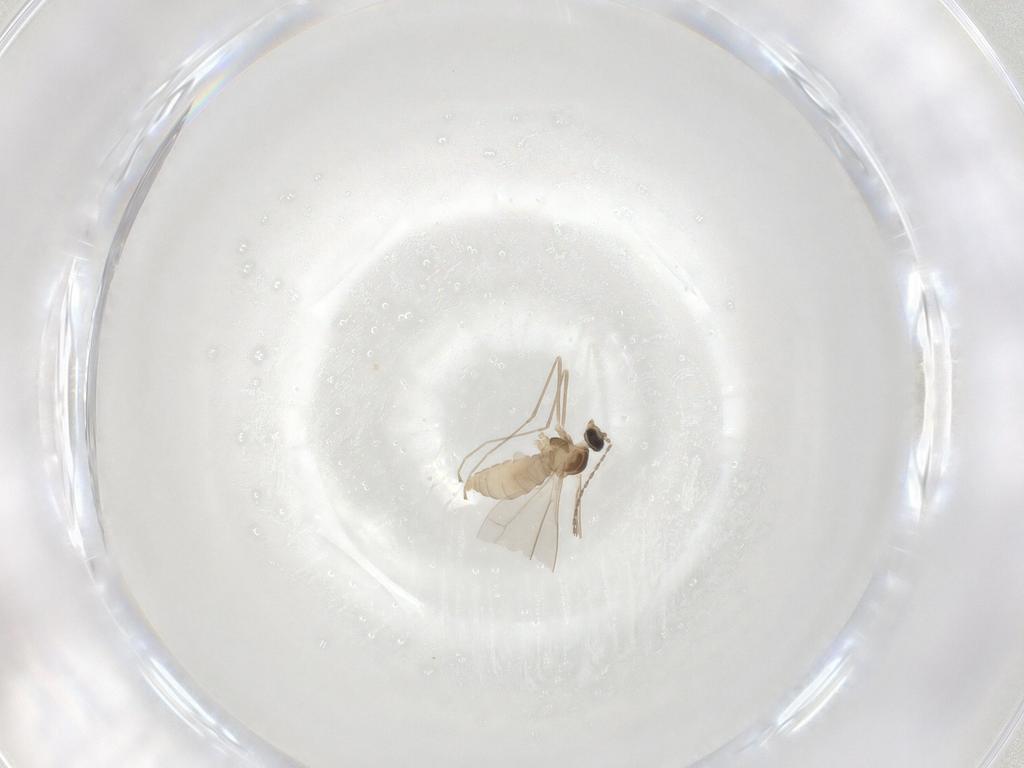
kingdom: Animalia
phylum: Arthropoda
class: Insecta
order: Diptera
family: Cecidomyiidae
